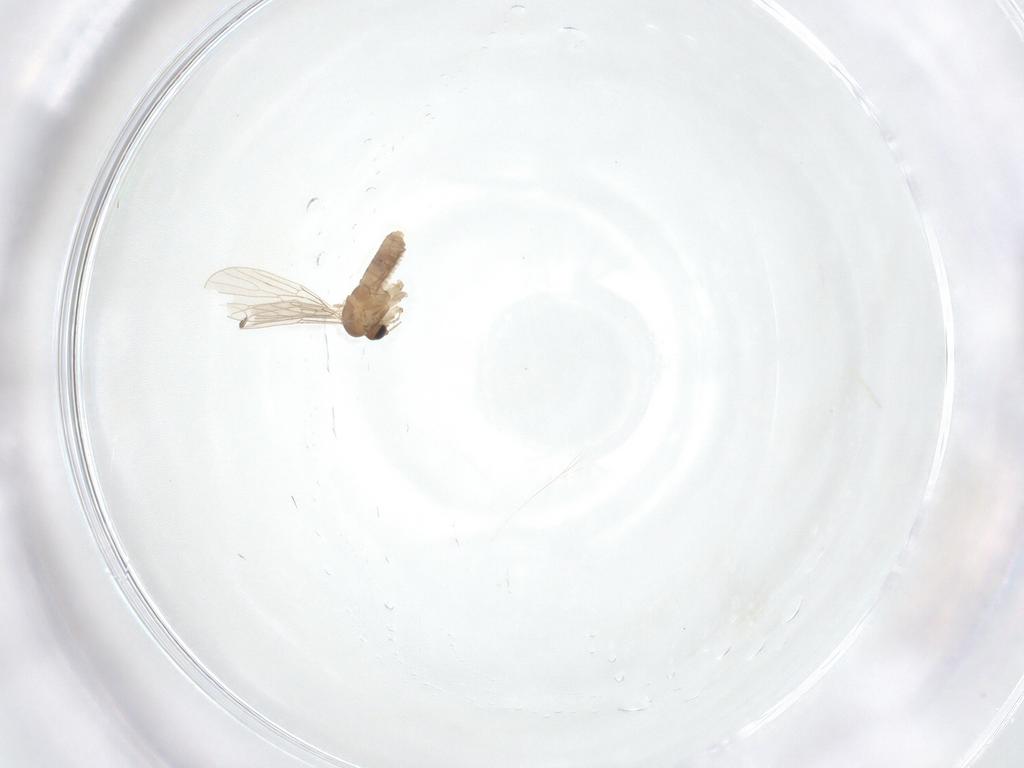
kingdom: Animalia
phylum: Arthropoda
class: Insecta
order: Diptera
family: Psychodidae
